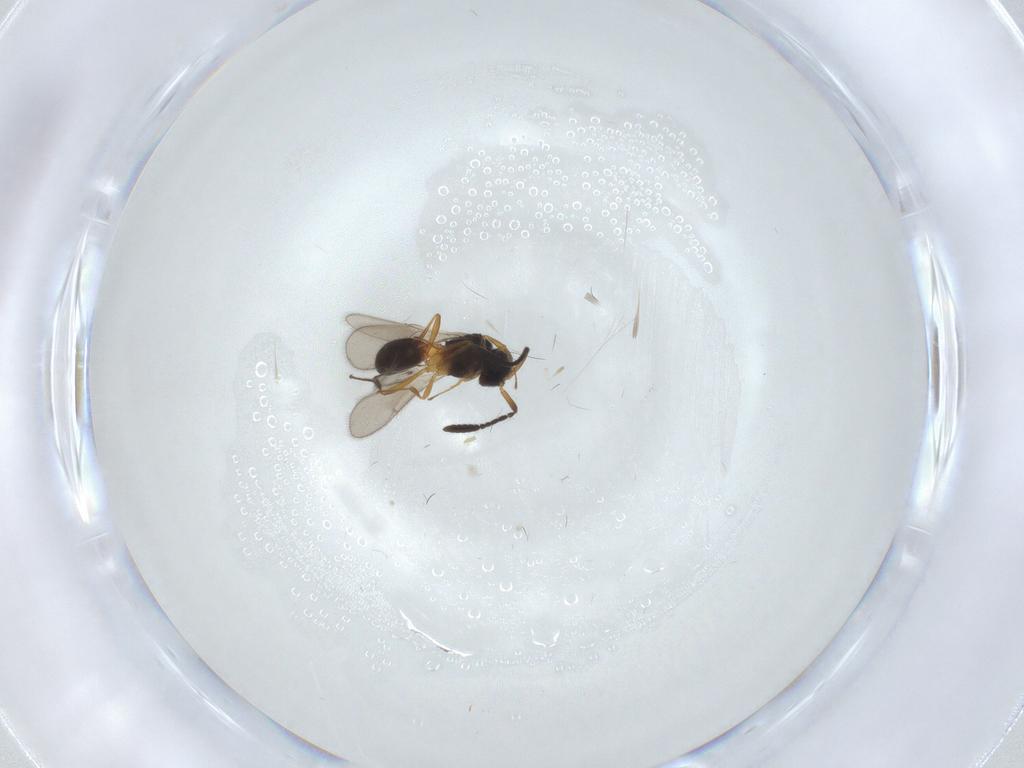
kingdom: Animalia
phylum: Arthropoda
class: Insecta
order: Hymenoptera
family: Scelionidae
